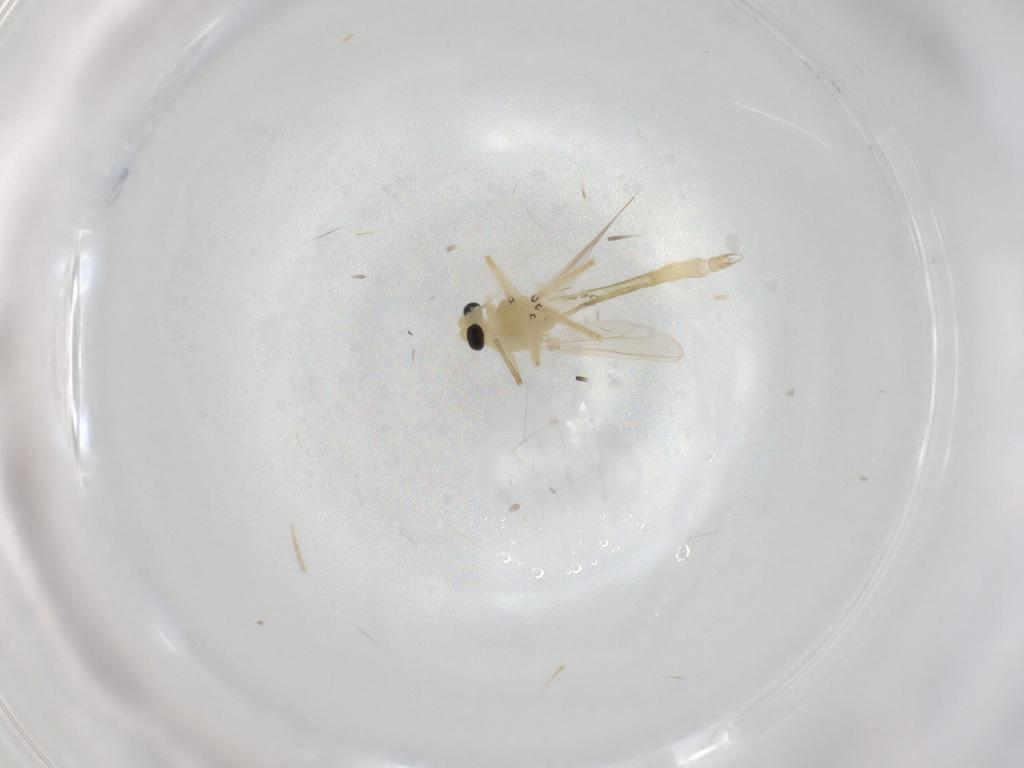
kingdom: Animalia
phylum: Arthropoda
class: Insecta
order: Diptera
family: Chironomidae
